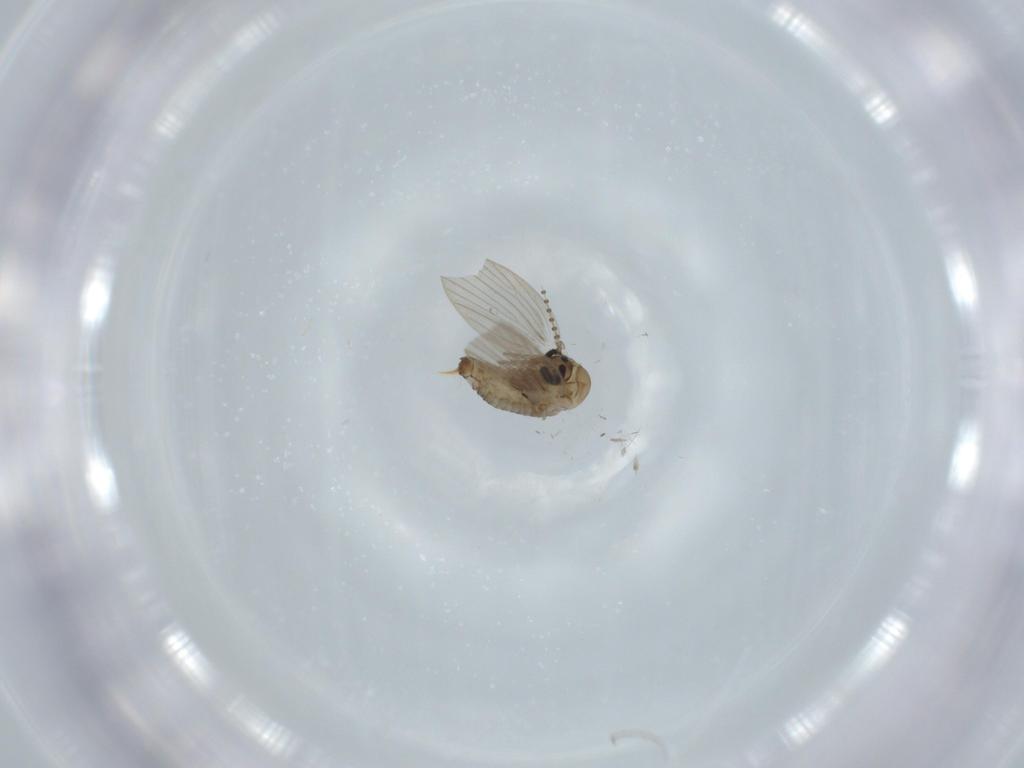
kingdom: Animalia
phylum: Arthropoda
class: Insecta
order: Diptera
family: Psychodidae
